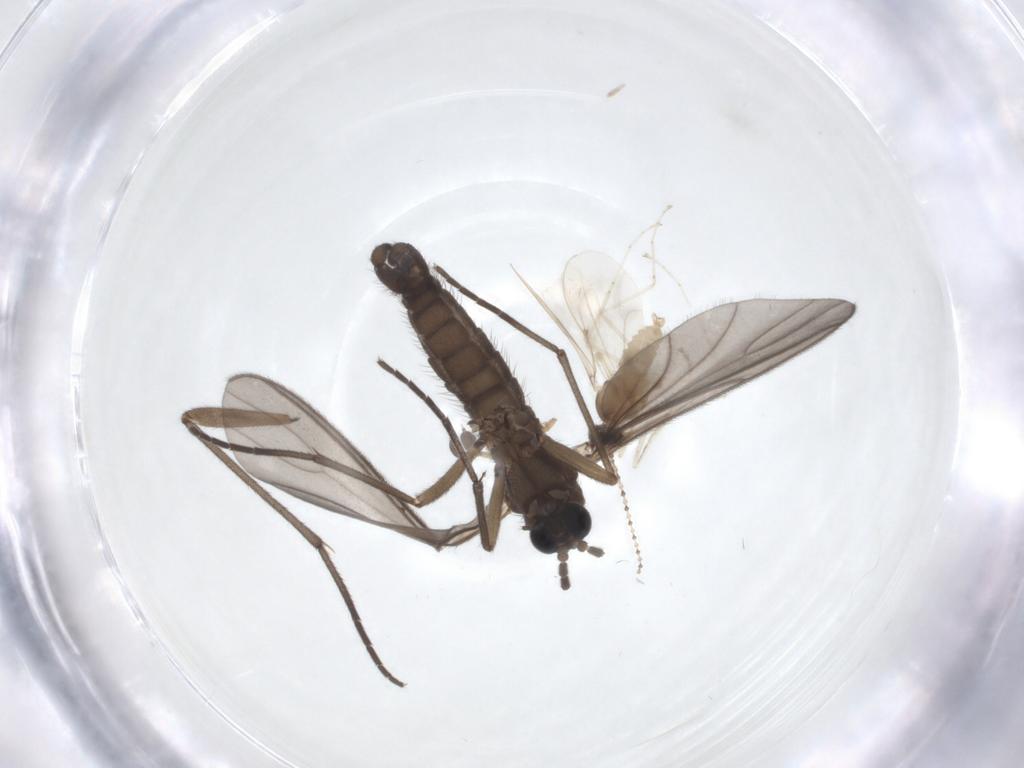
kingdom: Animalia
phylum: Arthropoda
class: Insecta
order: Diptera
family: Sciaridae
